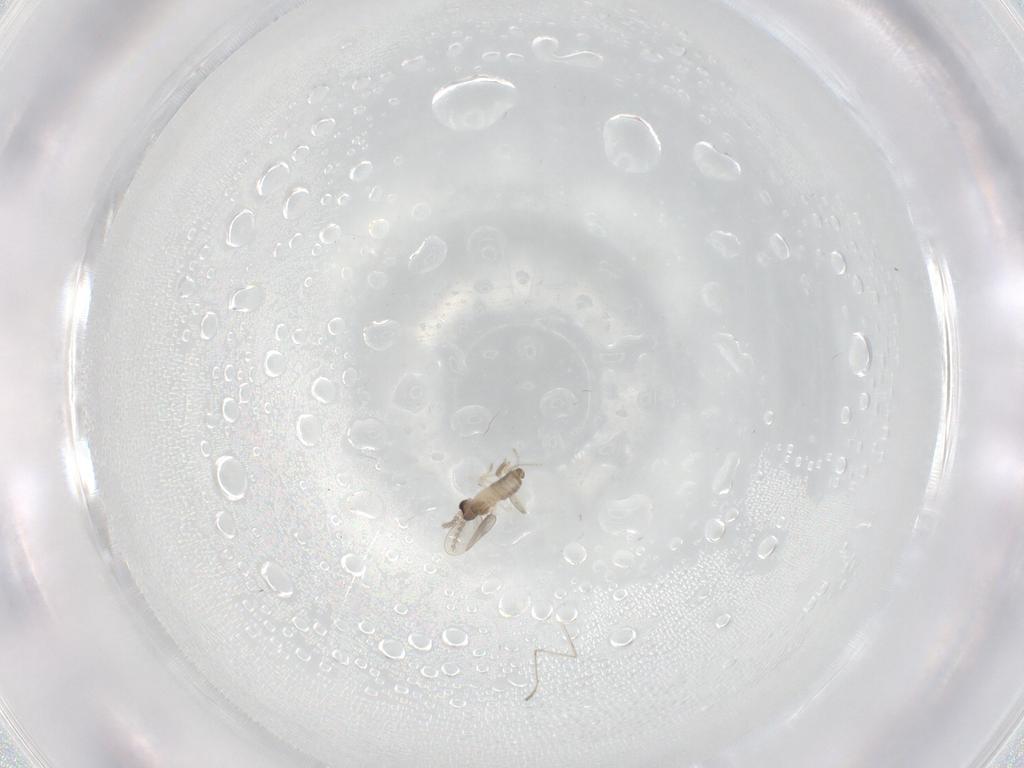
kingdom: Animalia
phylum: Arthropoda
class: Insecta
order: Diptera
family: Cecidomyiidae
